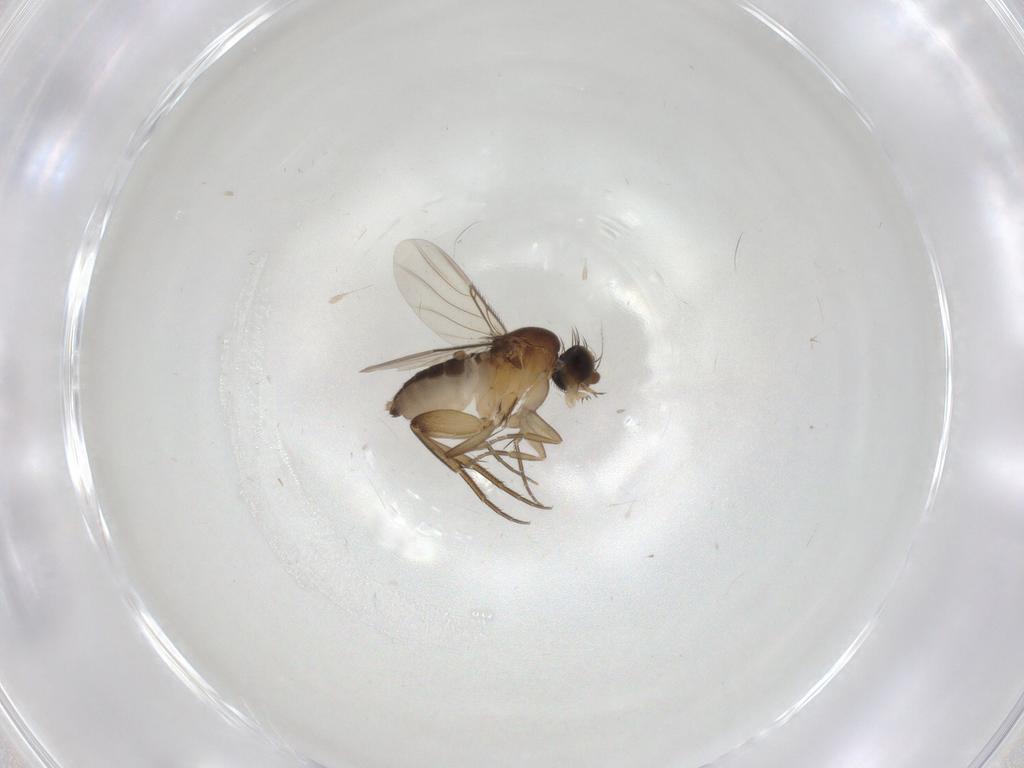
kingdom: Animalia
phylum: Arthropoda
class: Insecta
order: Diptera
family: Phoridae
